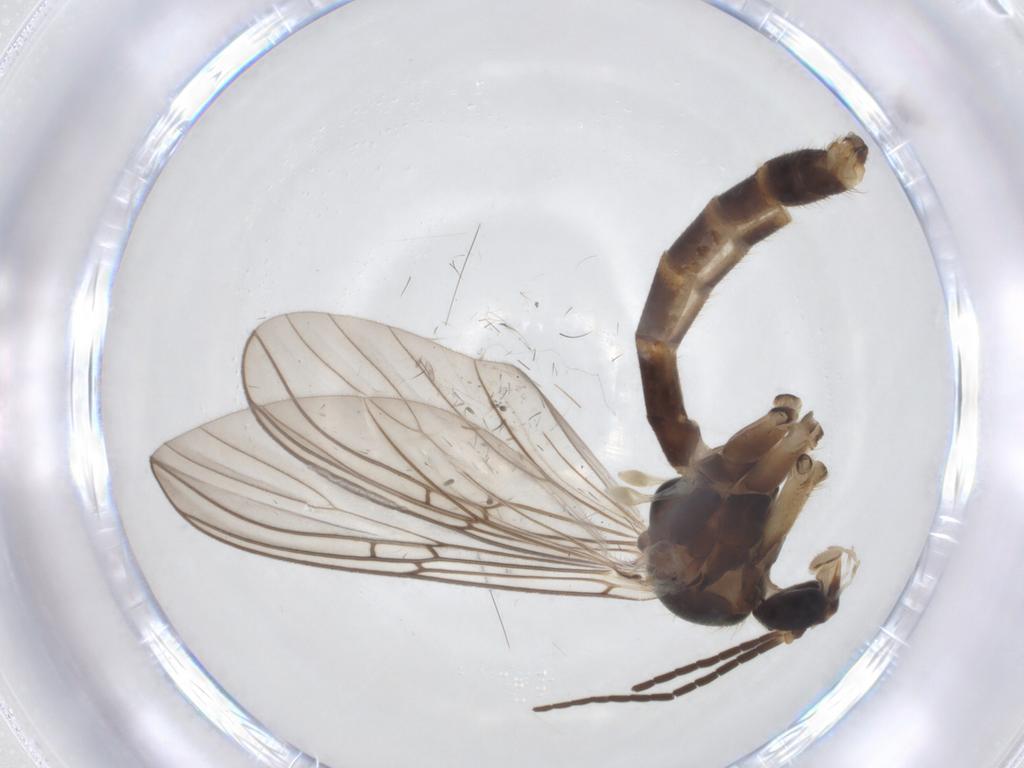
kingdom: Animalia
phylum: Arthropoda
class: Insecta
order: Diptera
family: Mycetophilidae
